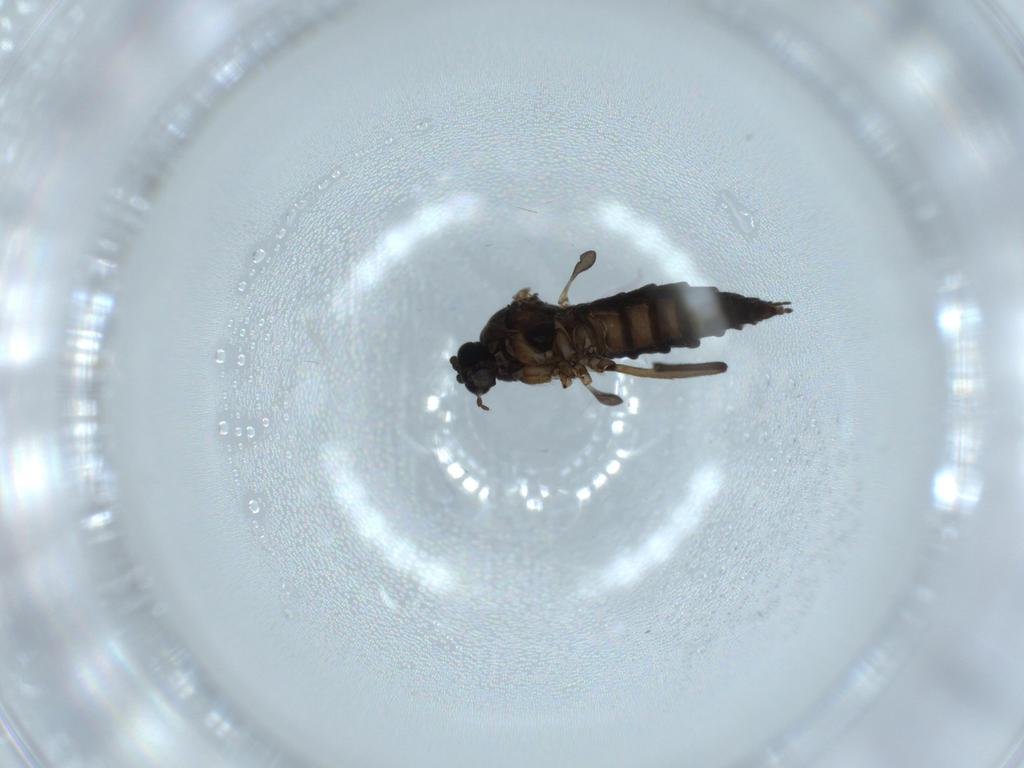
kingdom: Animalia
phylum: Arthropoda
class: Insecta
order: Diptera
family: Sciaridae
